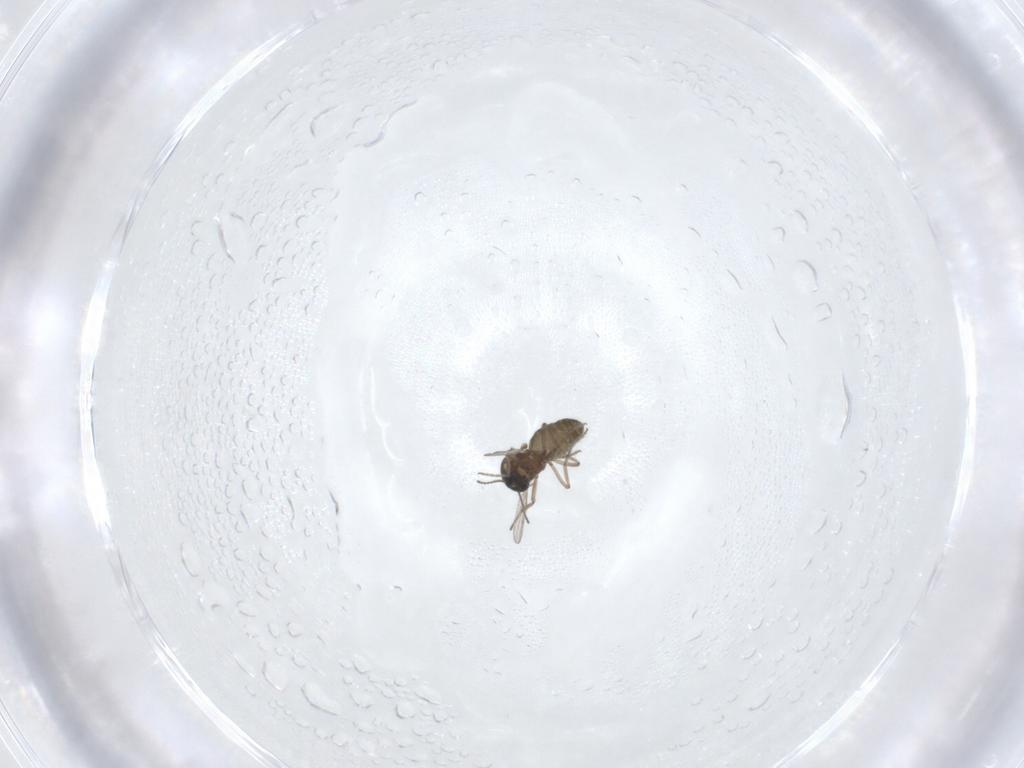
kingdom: Animalia
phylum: Arthropoda
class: Insecta
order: Diptera
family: Ceratopogonidae
